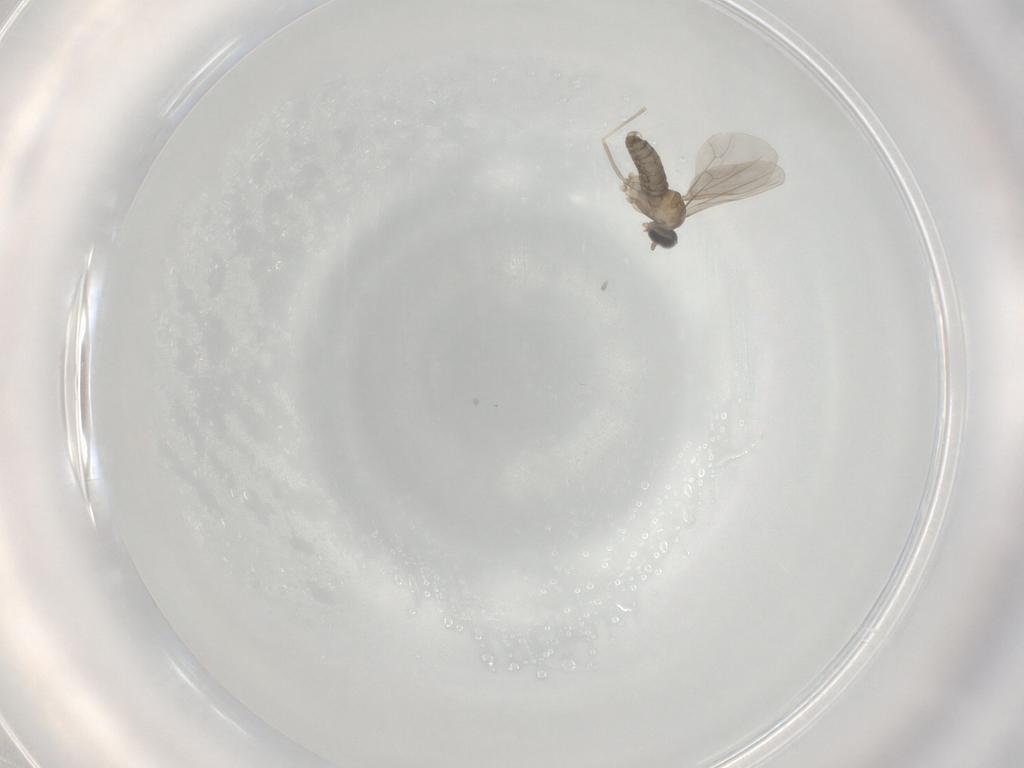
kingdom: Animalia
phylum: Arthropoda
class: Insecta
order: Diptera
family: Cecidomyiidae
